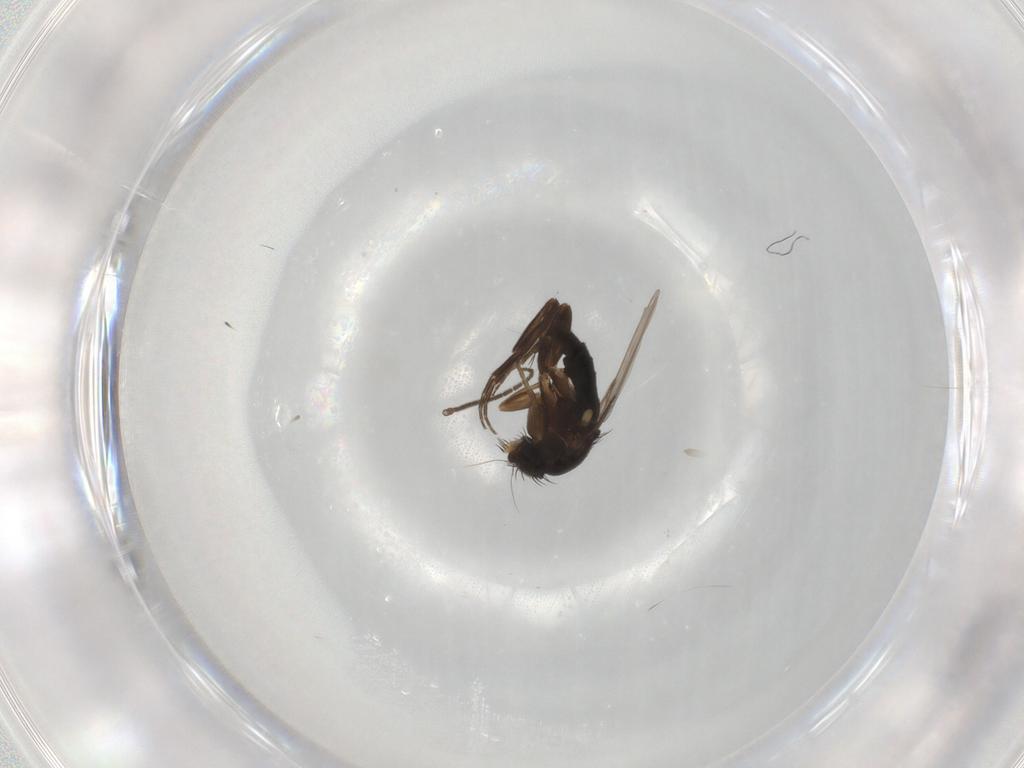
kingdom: Animalia
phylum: Arthropoda
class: Insecta
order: Diptera
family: Phoridae
